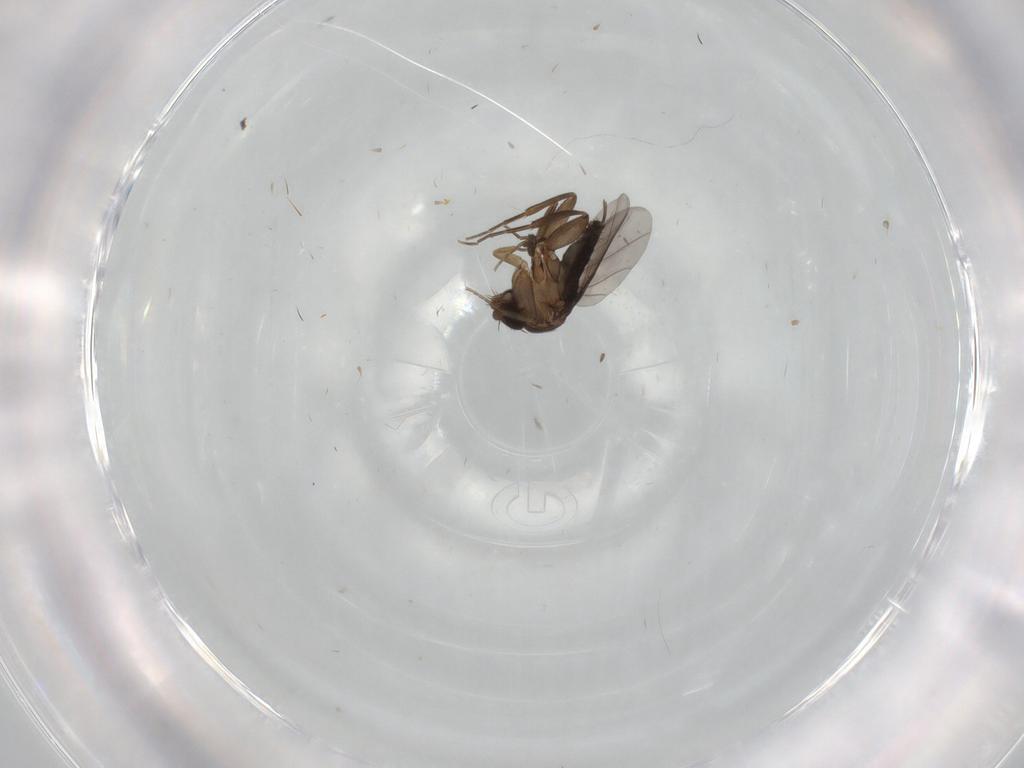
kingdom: Animalia
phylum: Arthropoda
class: Insecta
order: Diptera
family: Phoridae
